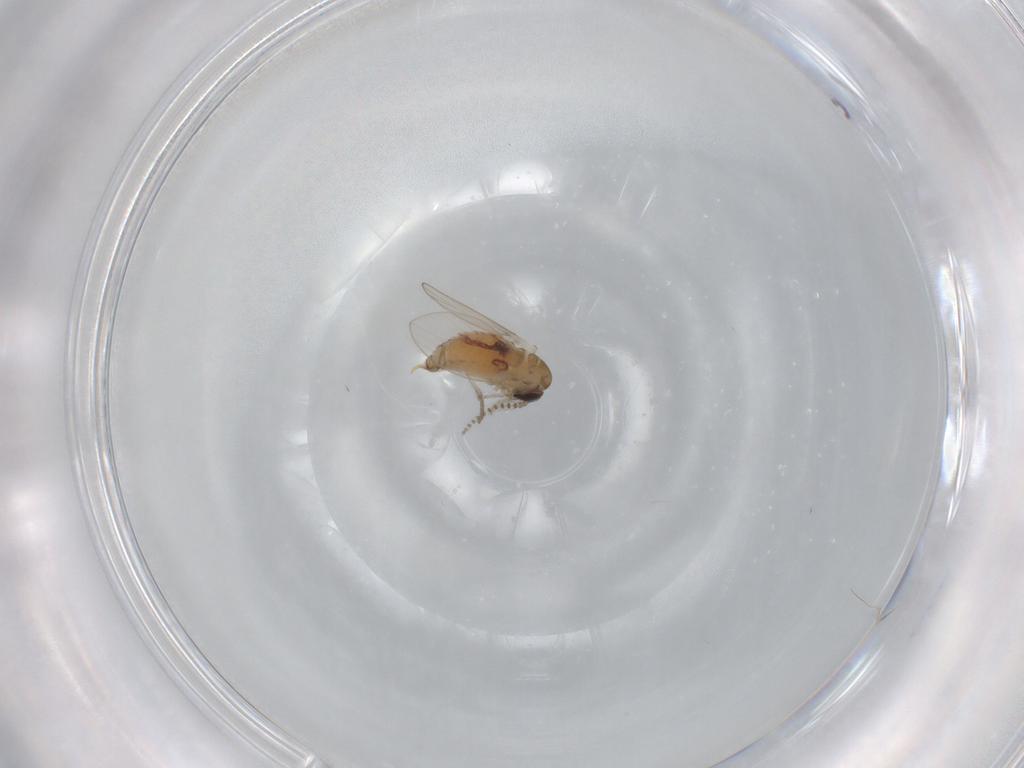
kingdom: Animalia
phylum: Arthropoda
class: Insecta
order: Diptera
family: Psychodidae
